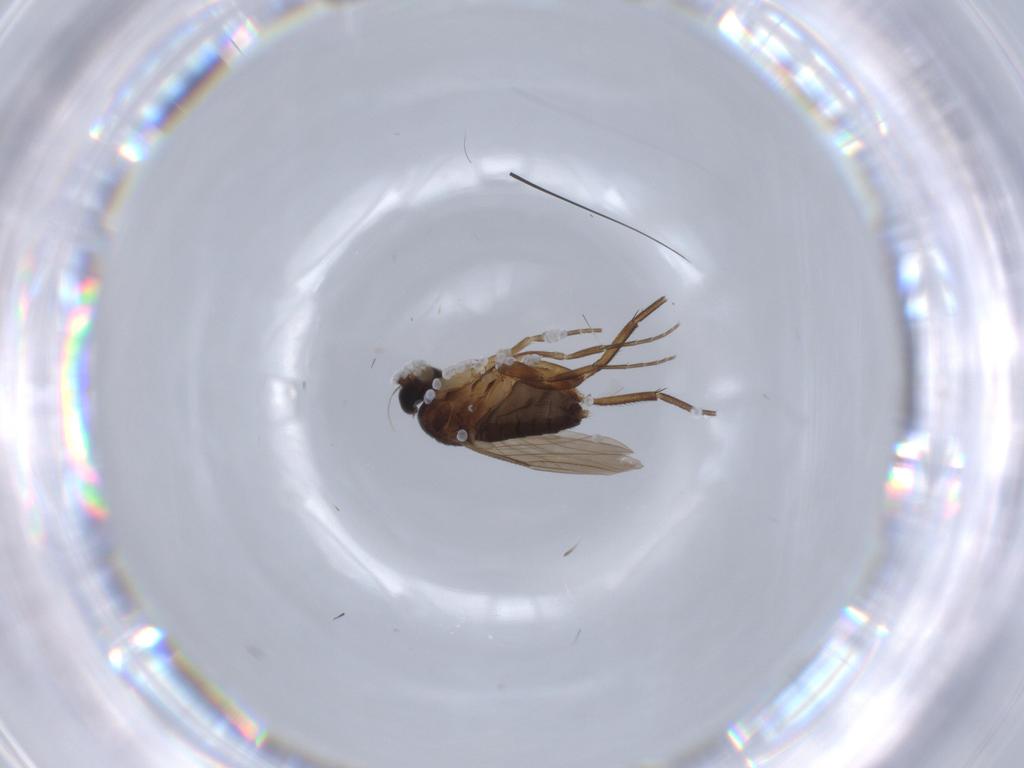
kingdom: Animalia
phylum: Arthropoda
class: Insecta
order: Diptera
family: Phoridae
